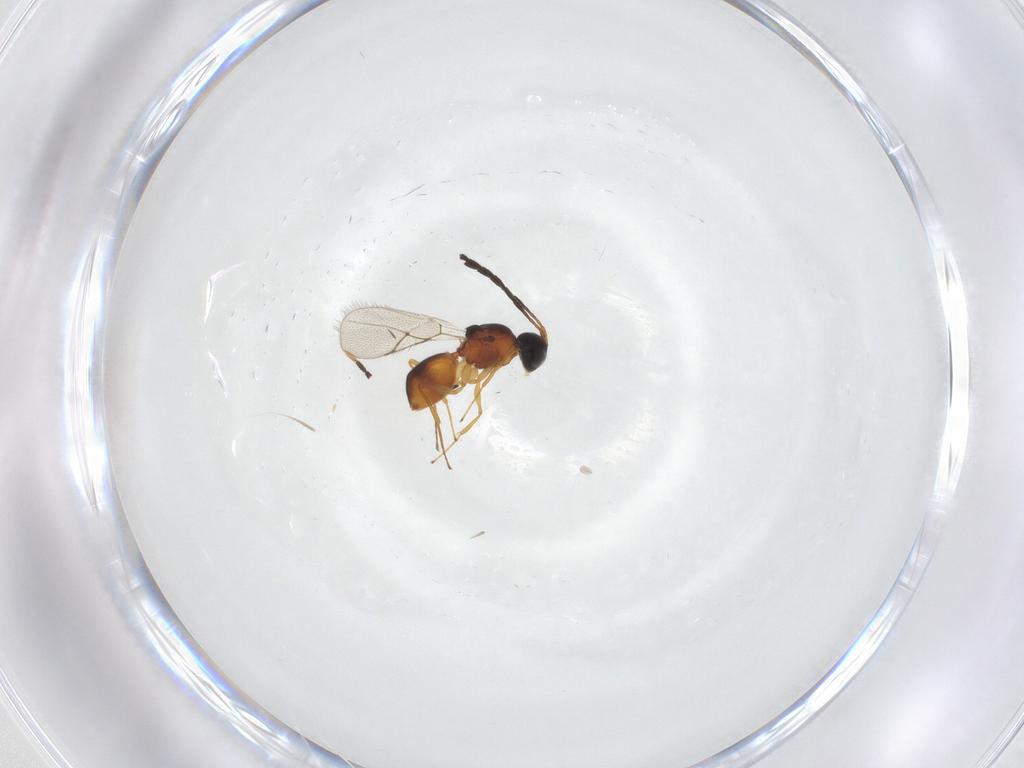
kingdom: Animalia
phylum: Arthropoda
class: Insecta
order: Hymenoptera
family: Figitidae
